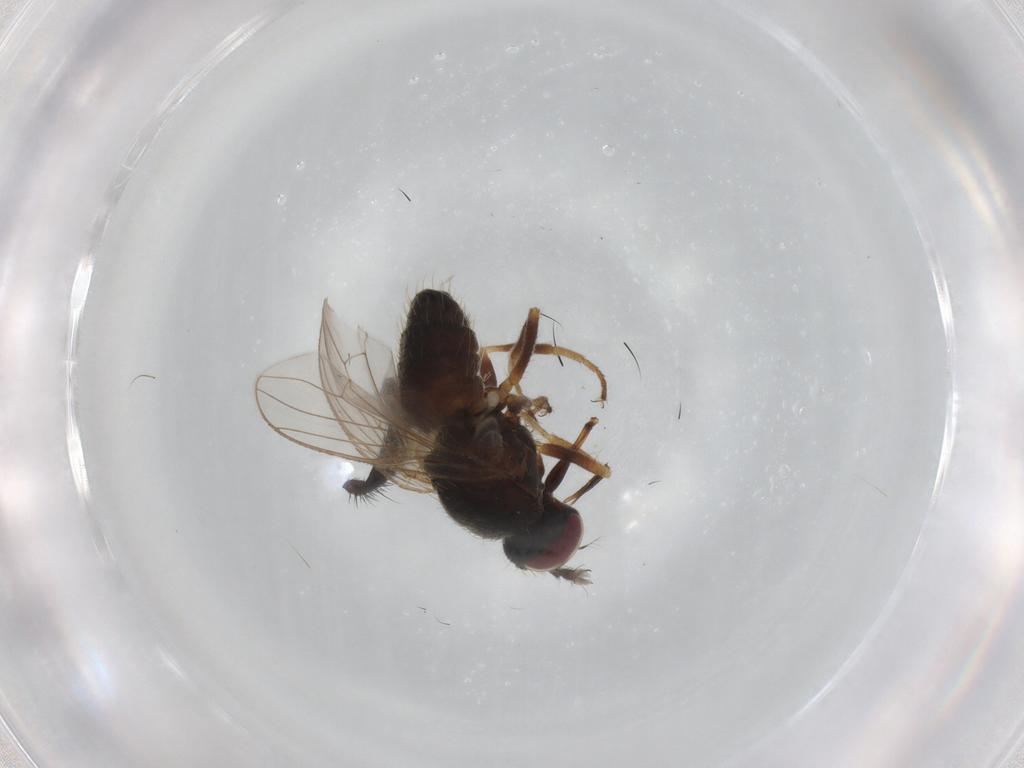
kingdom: Animalia
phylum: Arthropoda
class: Insecta
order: Diptera
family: Muscidae
